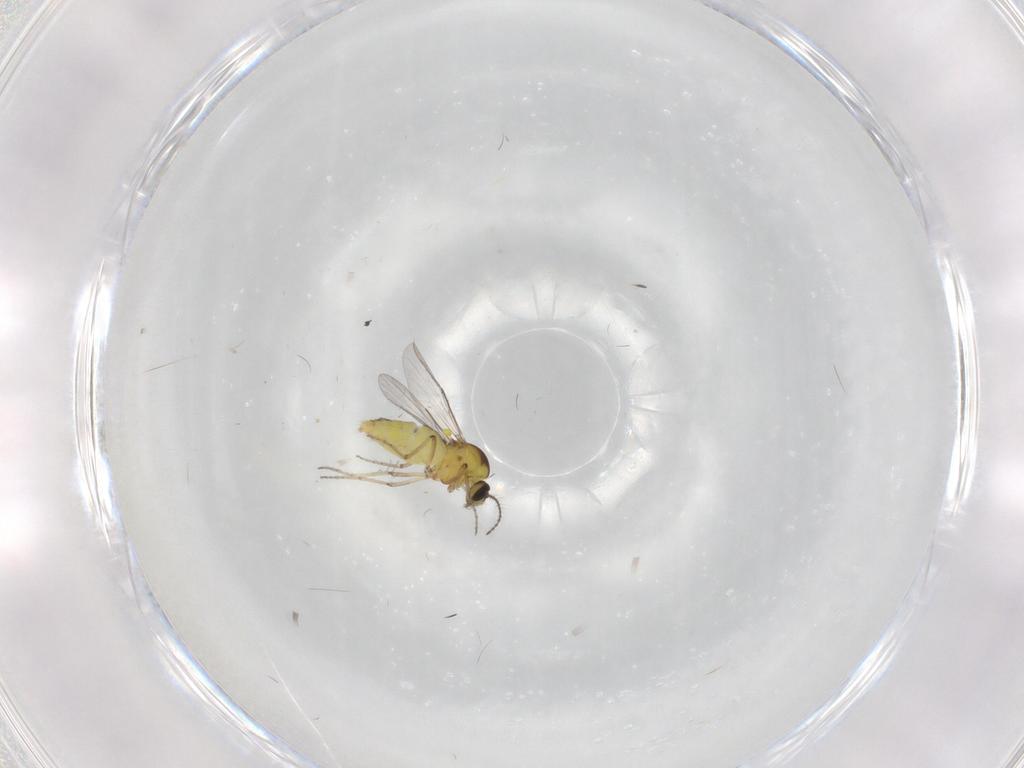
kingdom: Animalia
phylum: Arthropoda
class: Insecta
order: Diptera
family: Ceratopogonidae
